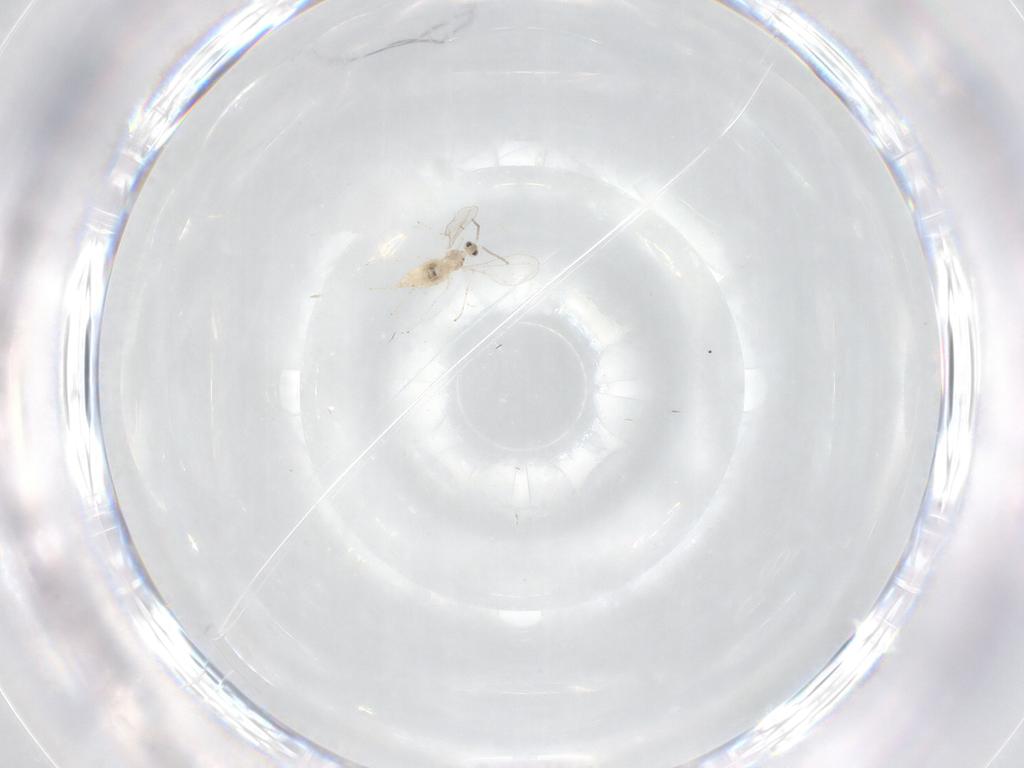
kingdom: Animalia
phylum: Arthropoda
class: Insecta
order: Diptera
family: Ceratopogonidae
